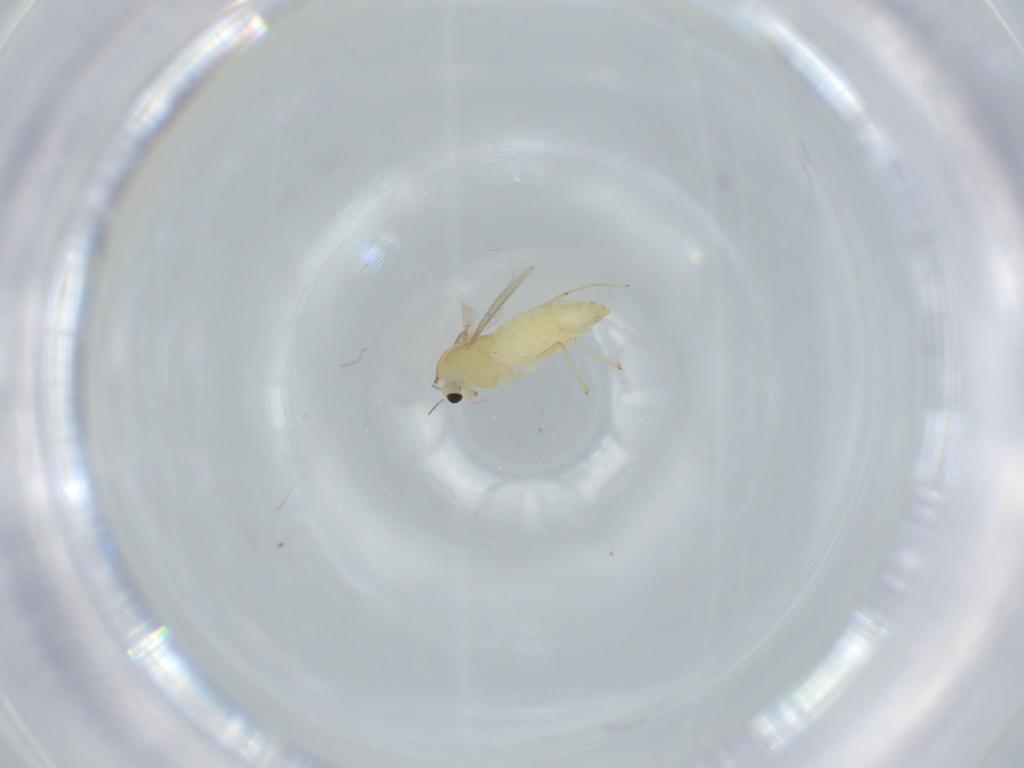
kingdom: Animalia
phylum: Arthropoda
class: Insecta
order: Diptera
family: Chironomidae
